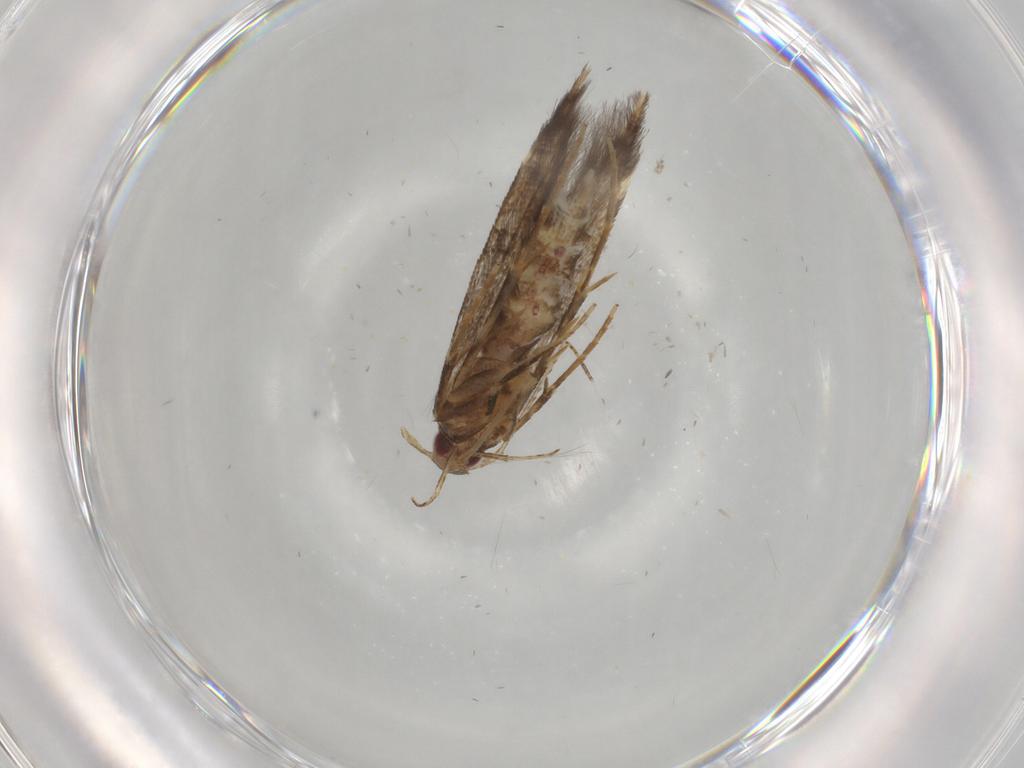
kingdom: Animalia
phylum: Arthropoda
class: Insecta
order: Lepidoptera
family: Cosmopterigidae
